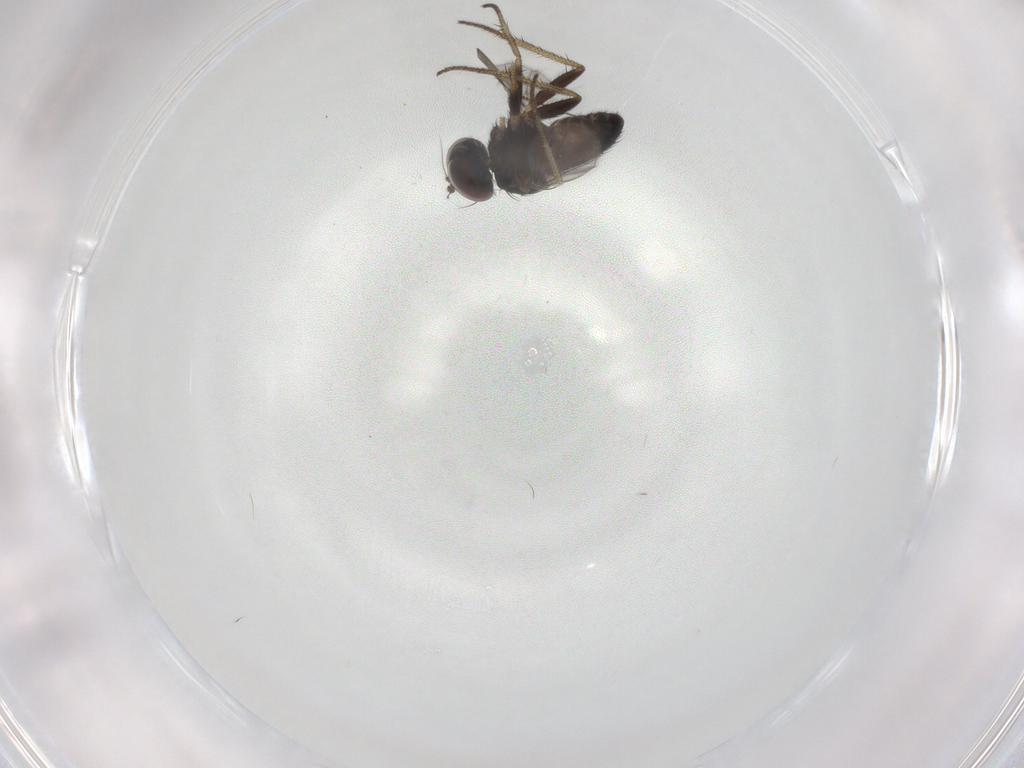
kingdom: Animalia
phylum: Arthropoda
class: Insecta
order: Diptera
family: Dolichopodidae
